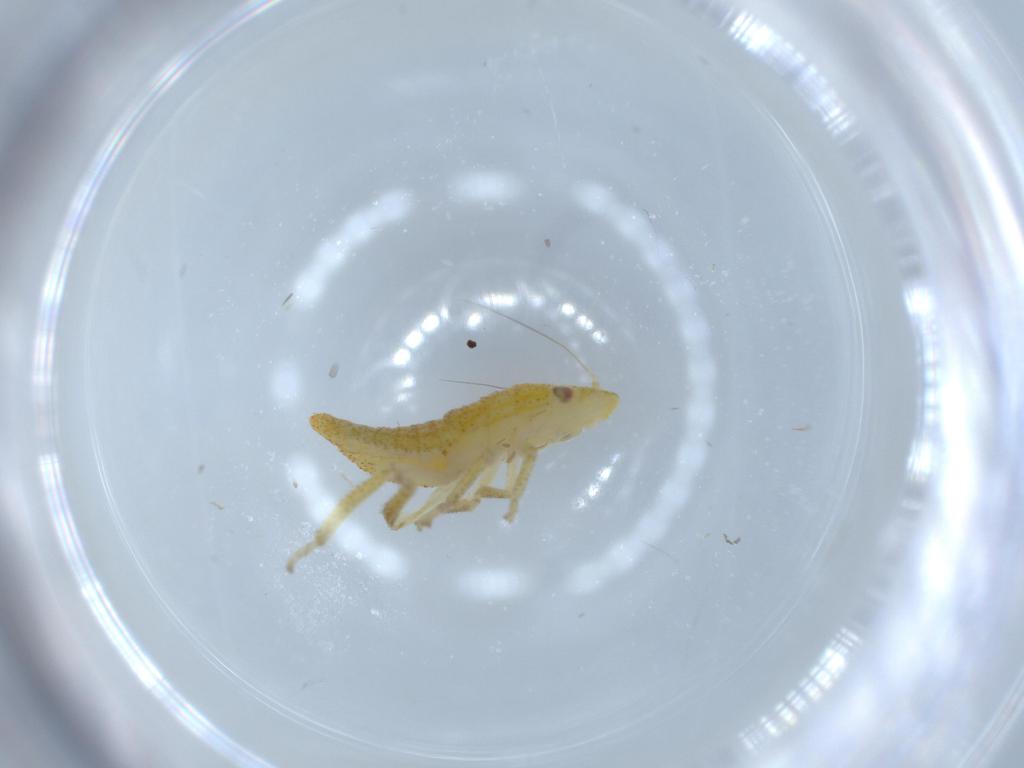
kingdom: Animalia
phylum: Arthropoda
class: Insecta
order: Hemiptera
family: Cicadellidae
